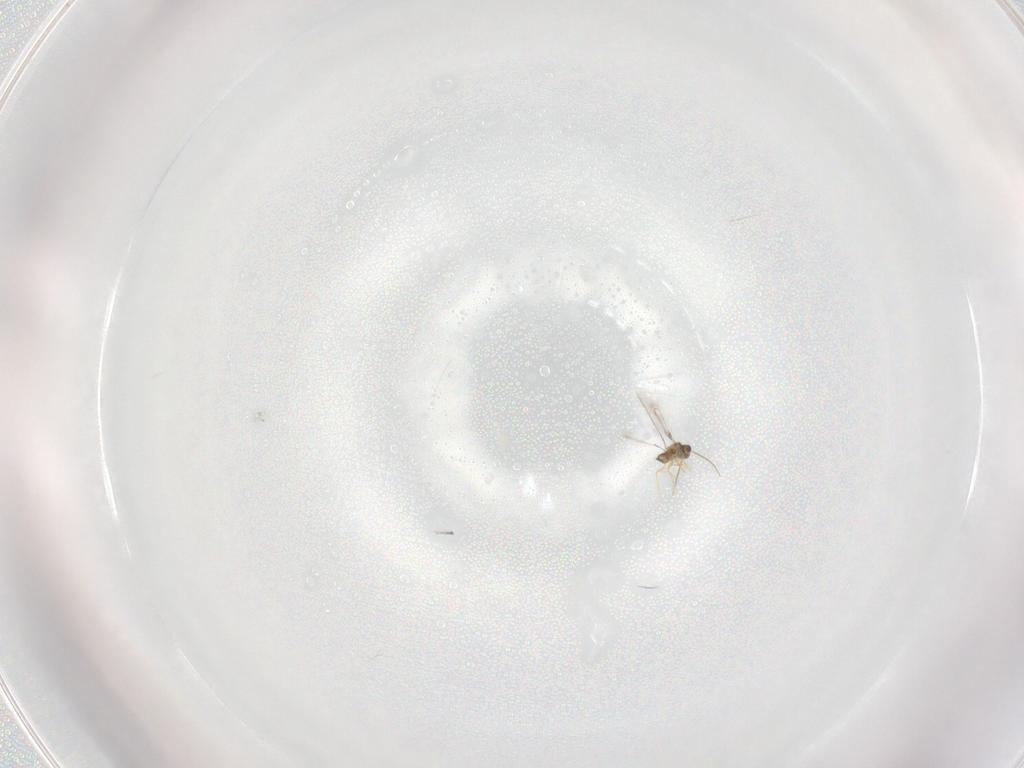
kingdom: Animalia
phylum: Arthropoda
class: Insecta
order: Hymenoptera
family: Mymaridae
